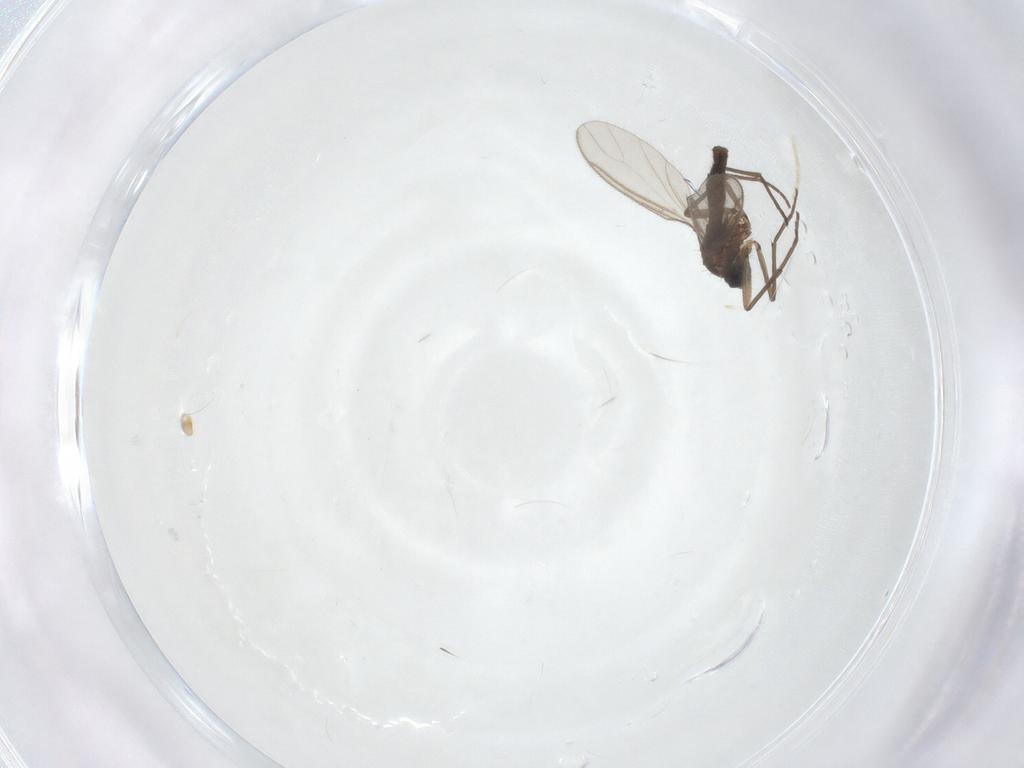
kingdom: Animalia
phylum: Arthropoda
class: Insecta
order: Diptera
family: Sciaridae
